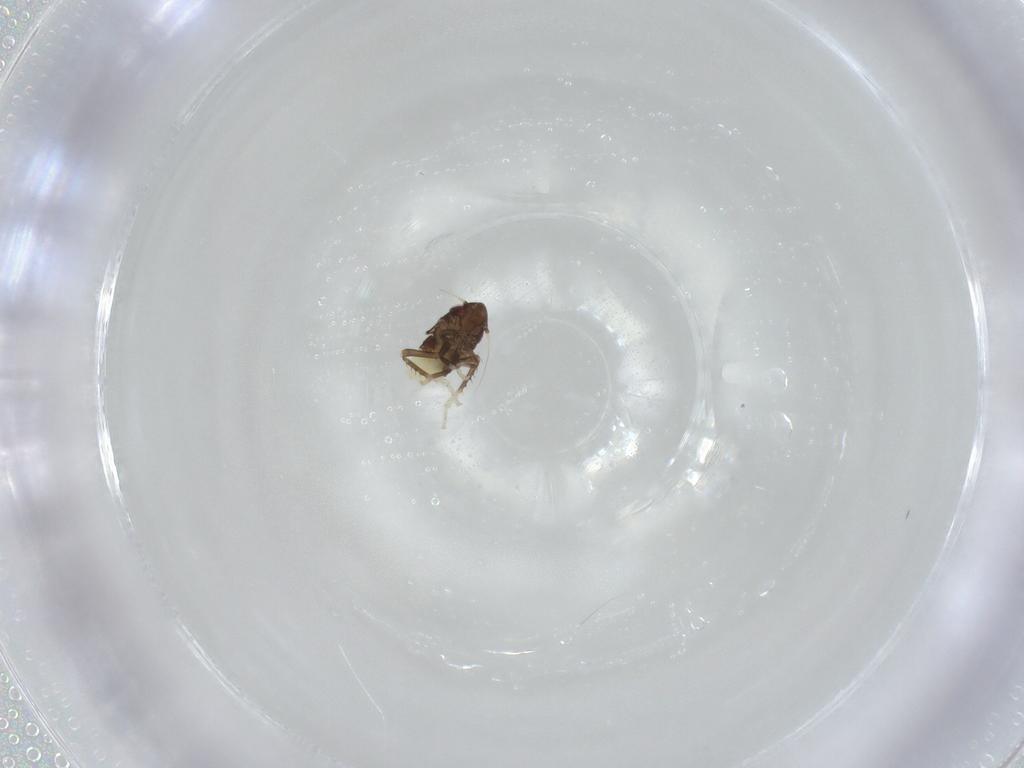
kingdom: Animalia
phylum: Arthropoda
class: Insecta
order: Lepidoptera
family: Gelechiidae
